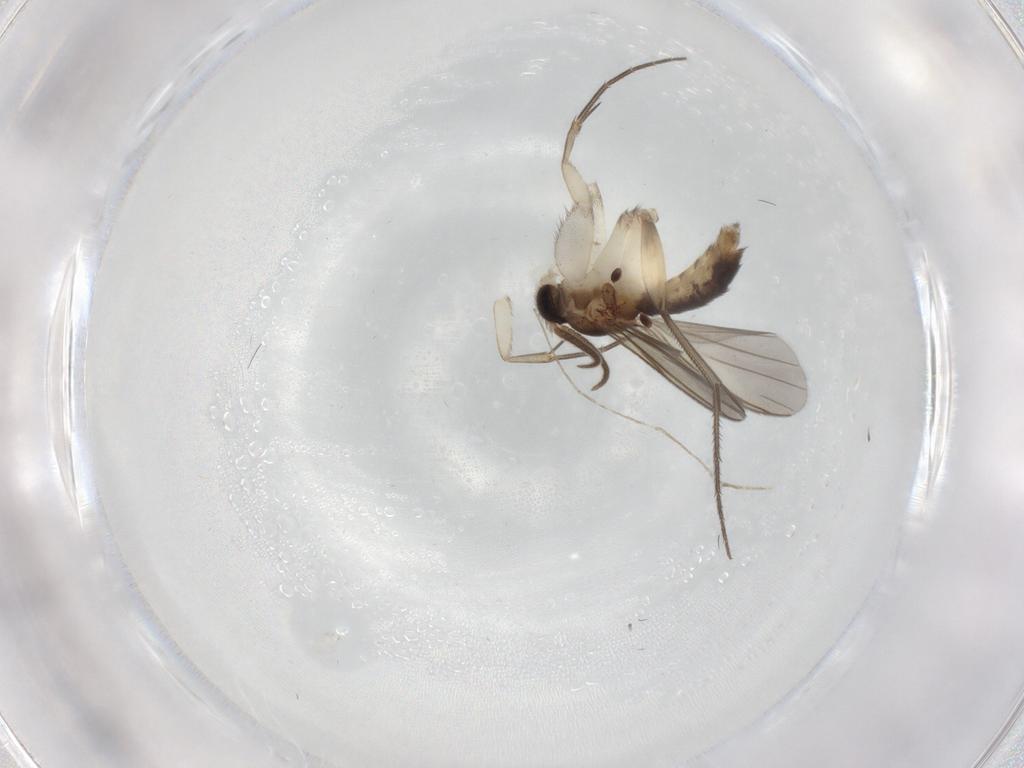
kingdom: Animalia
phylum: Arthropoda
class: Insecta
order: Diptera
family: Mycetophilidae
